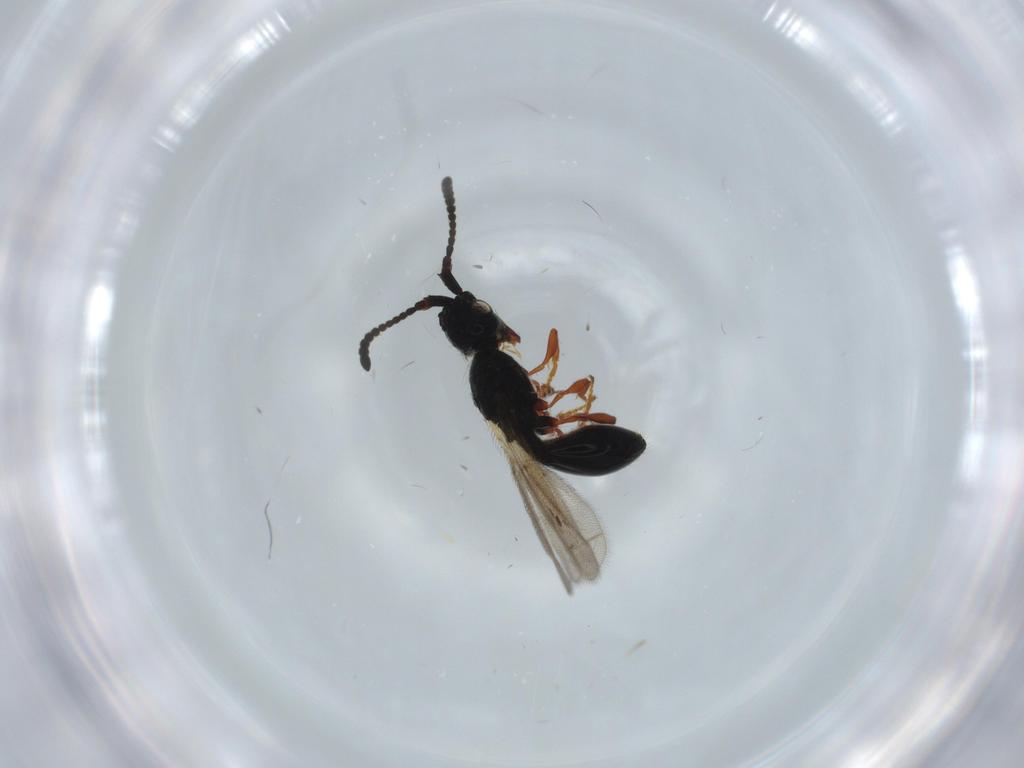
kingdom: Animalia
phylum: Arthropoda
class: Insecta
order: Hymenoptera
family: Diapriidae
